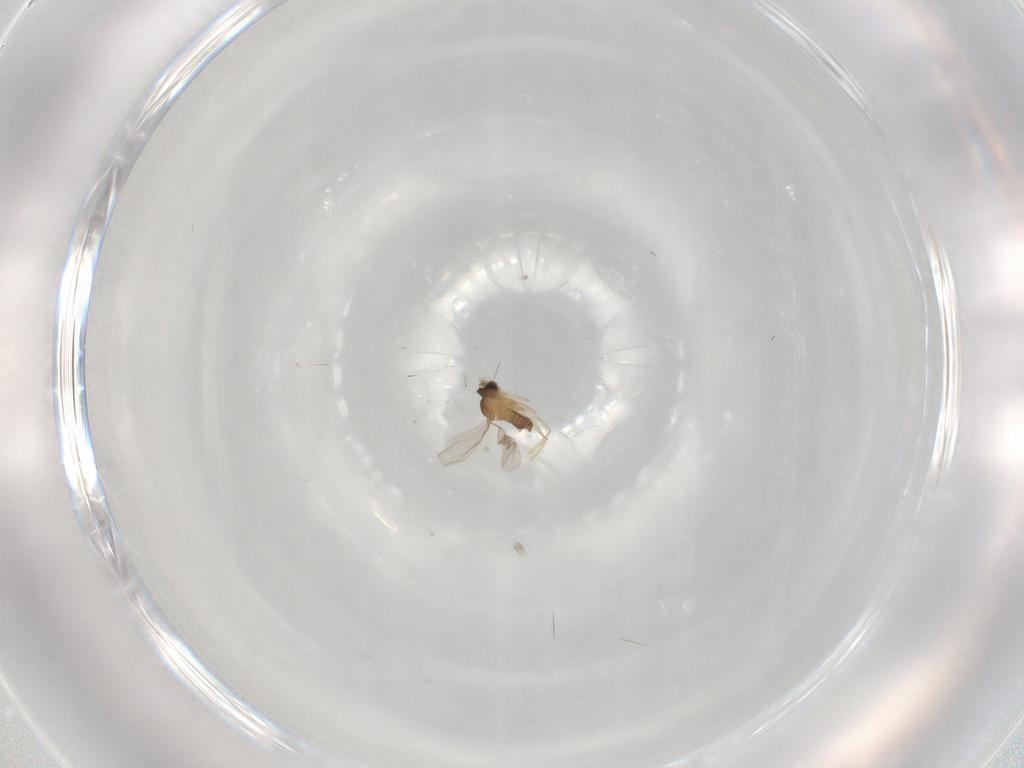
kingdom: Animalia
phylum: Arthropoda
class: Insecta
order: Diptera
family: Cecidomyiidae
